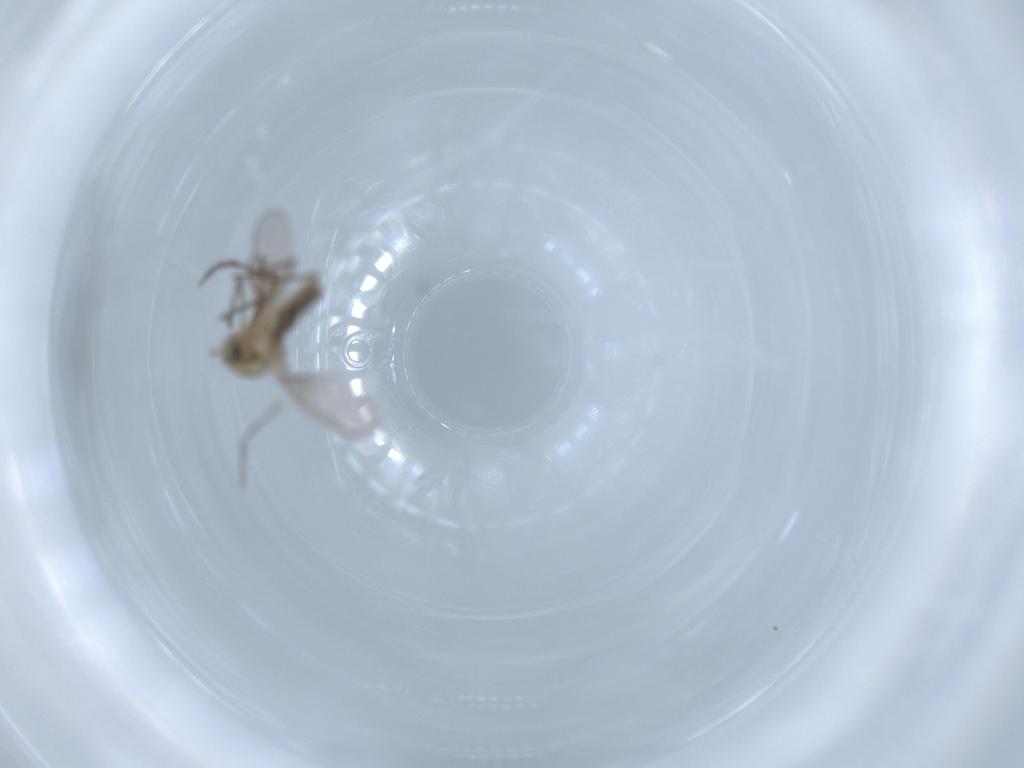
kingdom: Animalia
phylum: Arthropoda
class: Insecta
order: Diptera
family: Chironomidae
